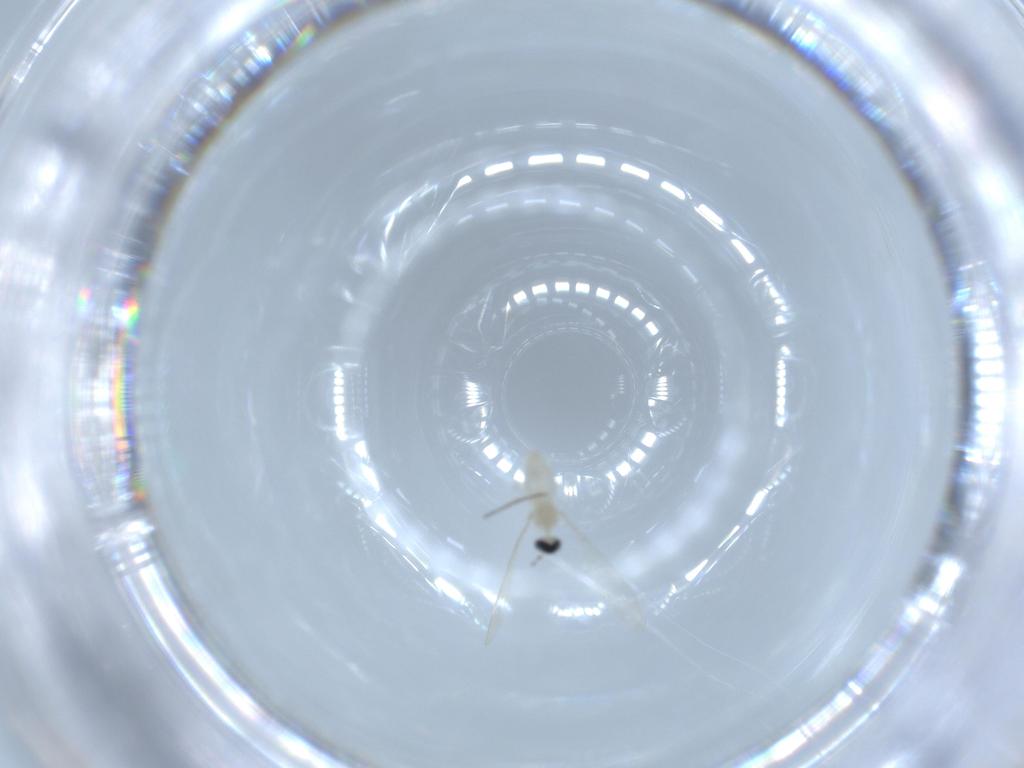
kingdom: Animalia
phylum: Arthropoda
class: Insecta
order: Diptera
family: Cecidomyiidae
